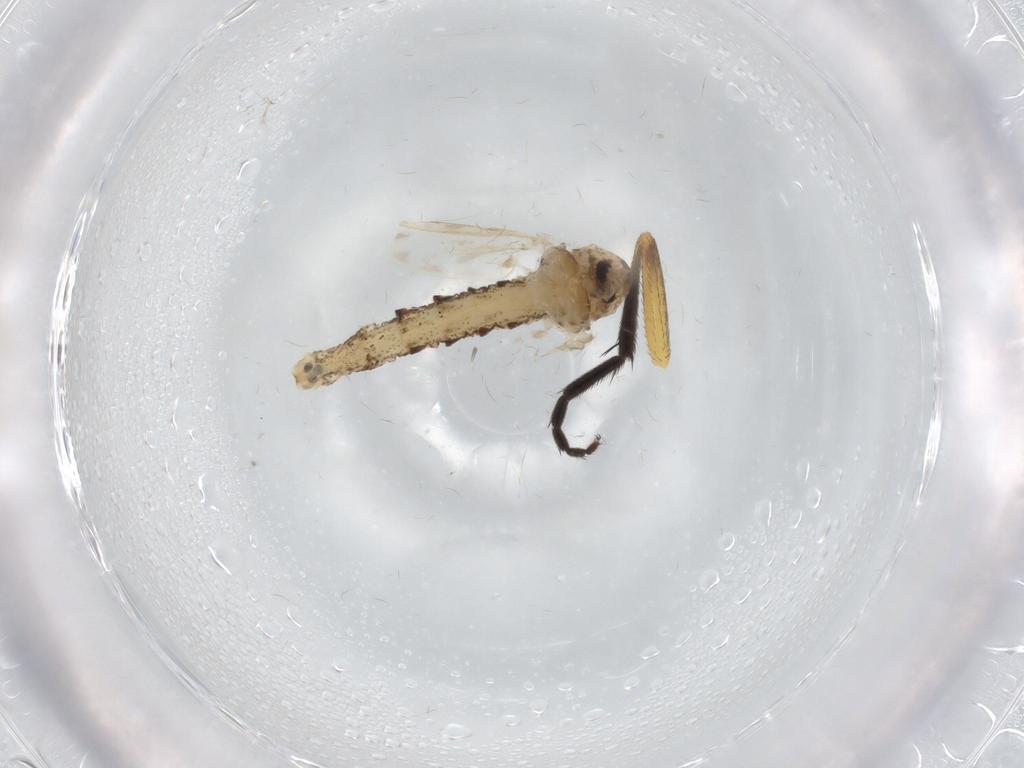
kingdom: Animalia
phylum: Arthropoda
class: Insecta
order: Diptera
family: Chaoboridae
